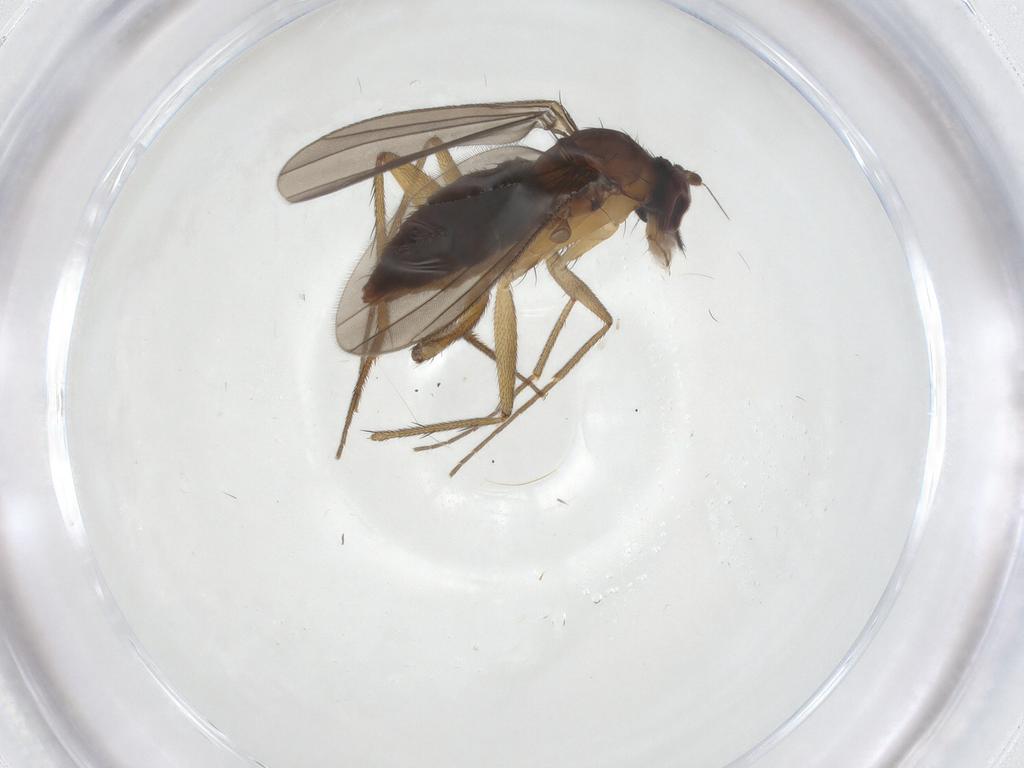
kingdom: Animalia
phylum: Arthropoda
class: Insecta
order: Diptera
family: Dolichopodidae
